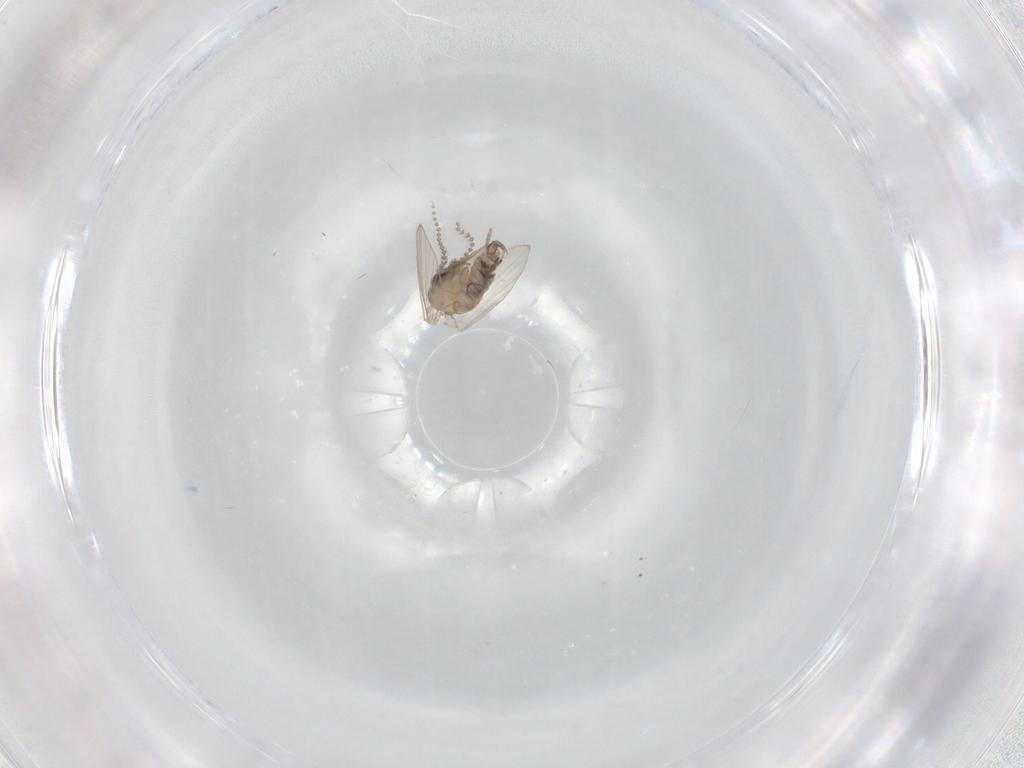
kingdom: Animalia
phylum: Arthropoda
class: Insecta
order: Diptera
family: Psychodidae
